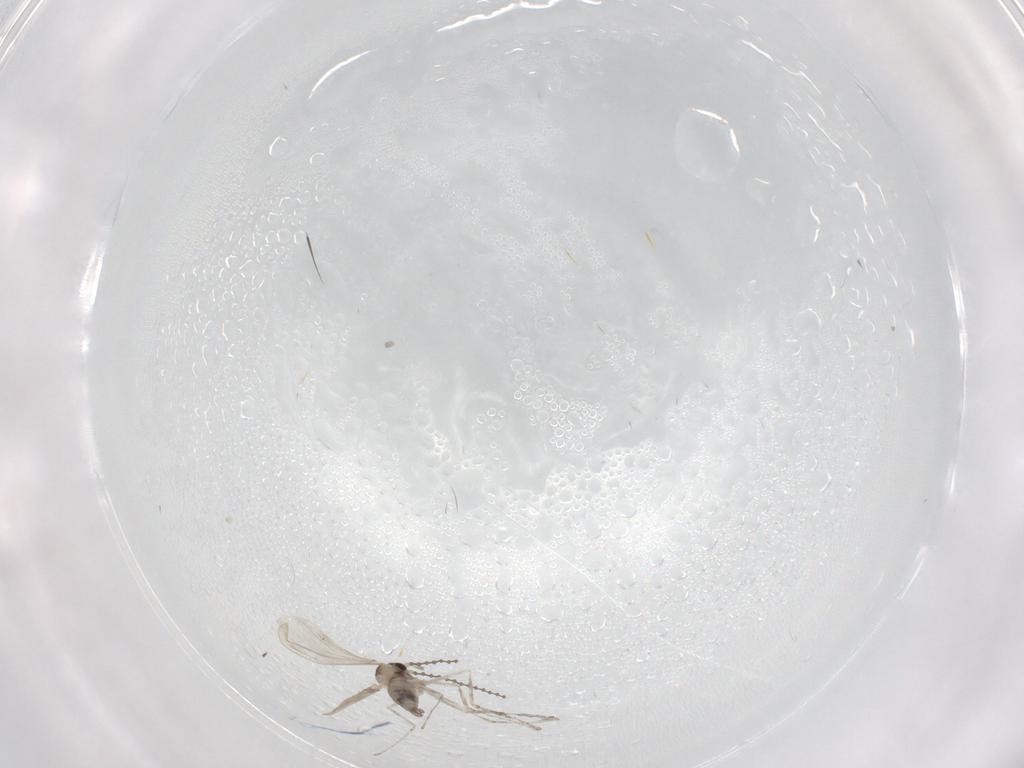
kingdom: Animalia
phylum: Arthropoda
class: Insecta
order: Diptera
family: Cecidomyiidae
